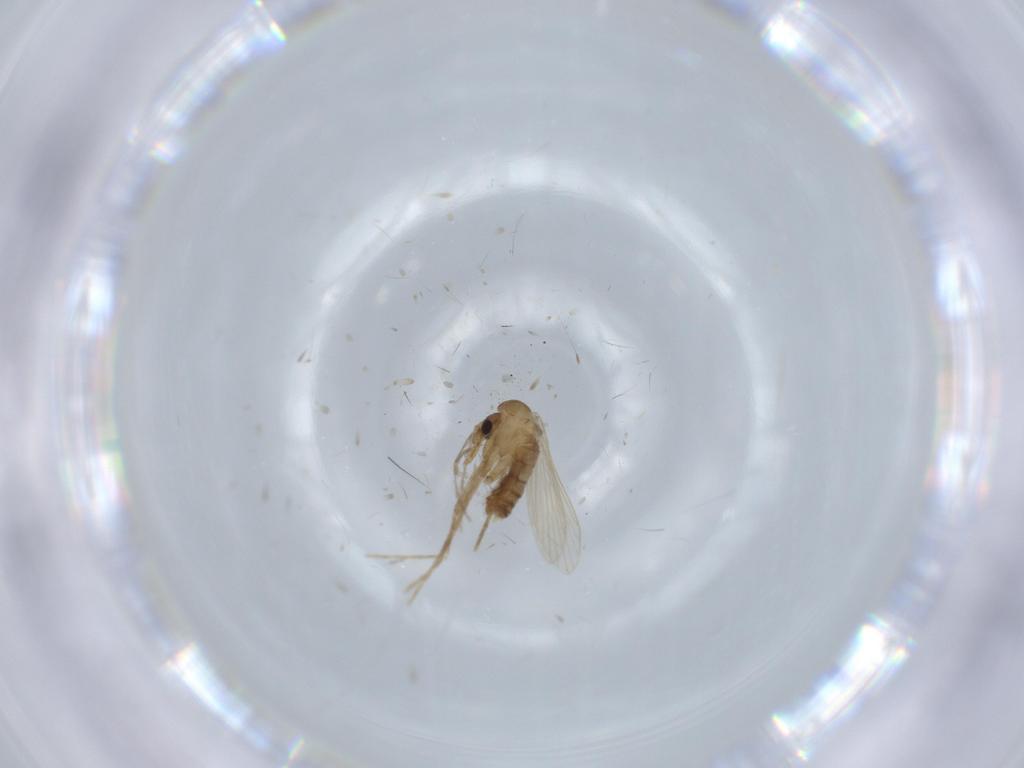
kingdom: Animalia
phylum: Arthropoda
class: Insecta
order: Diptera
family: Psychodidae
